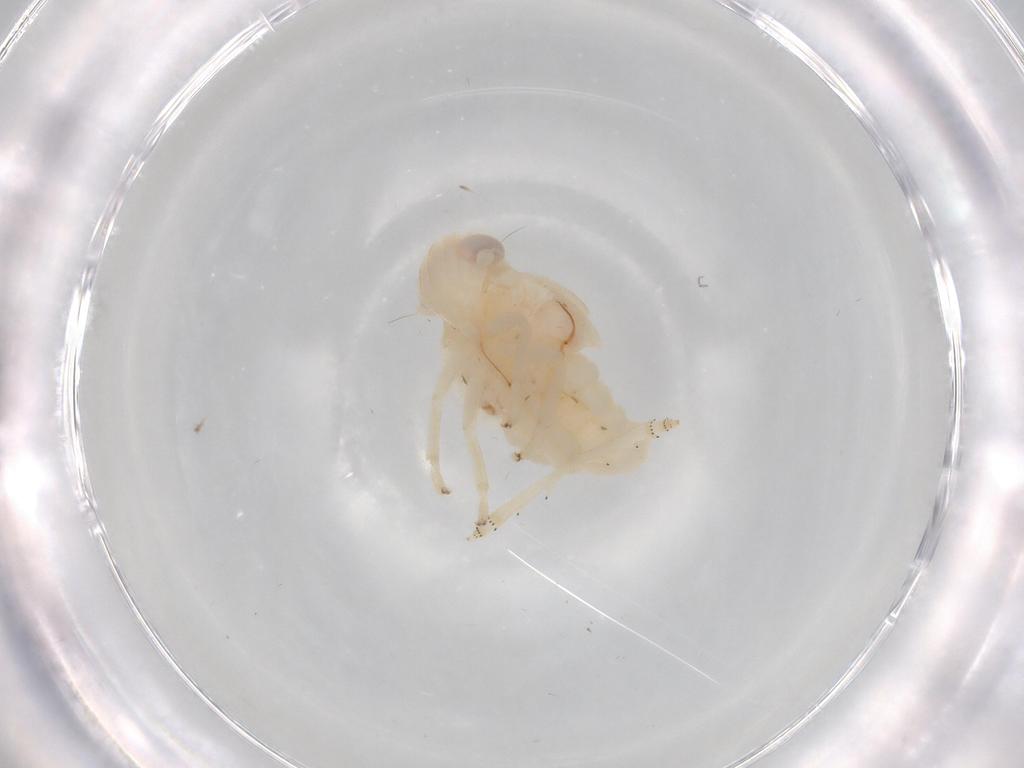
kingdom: Animalia
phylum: Arthropoda
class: Insecta
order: Hemiptera
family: Nogodinidae
